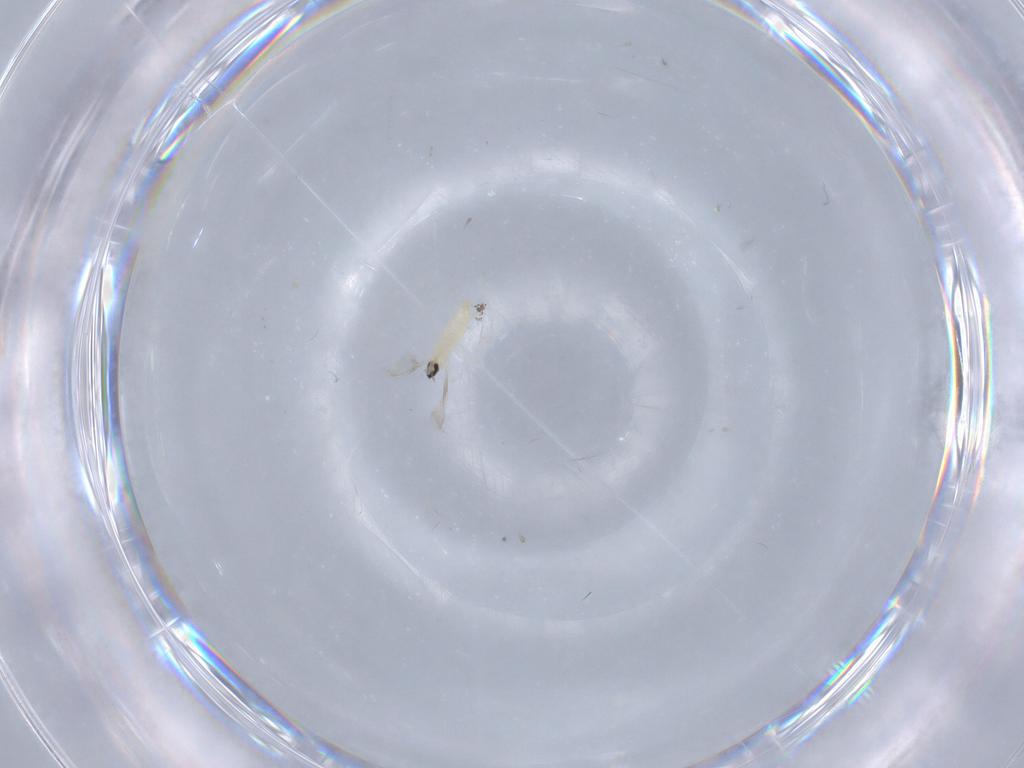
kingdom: Animalia
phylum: Arthropoda
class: Insecta
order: Diptera
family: Cecidomyiidae
